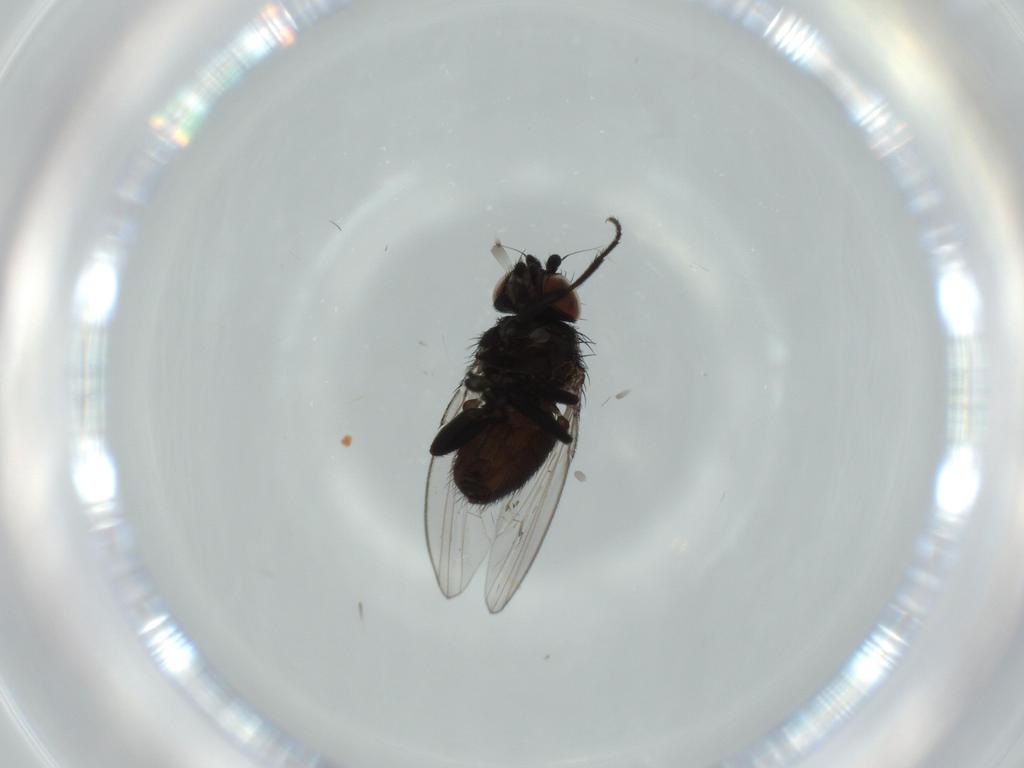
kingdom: Animalia
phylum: Arthropoda
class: Insecta
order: Diptera
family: Milichiidae
